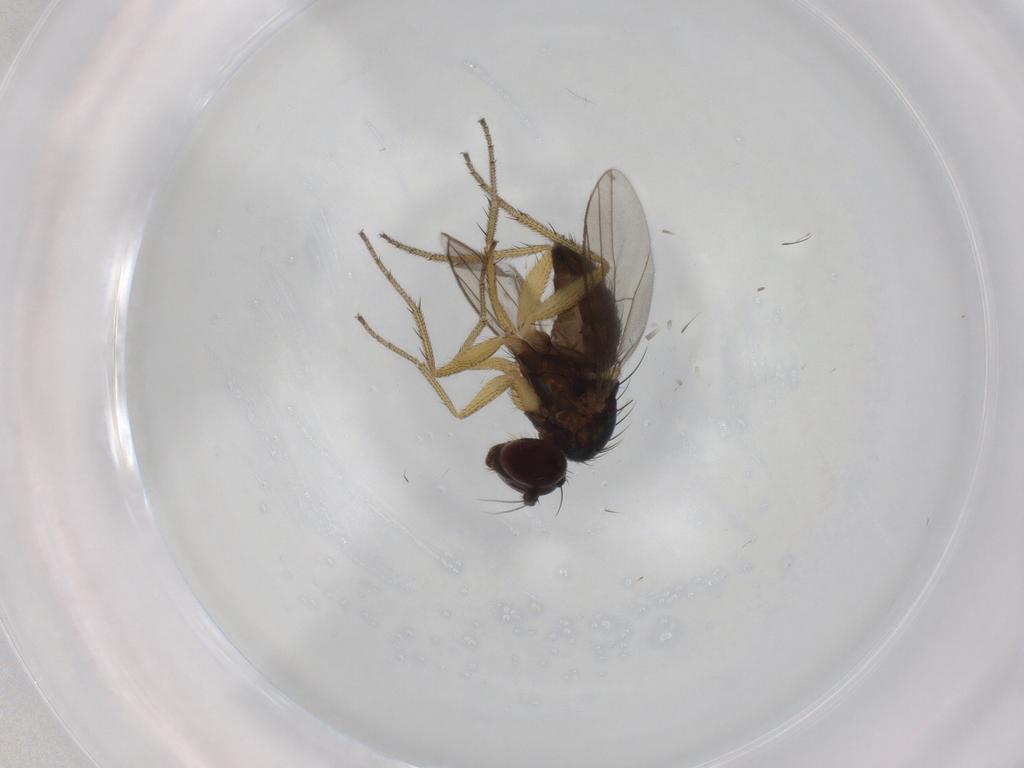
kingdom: Animalia
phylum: Arthropoda
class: Insecta
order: Diptera
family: Dolichopodidae
